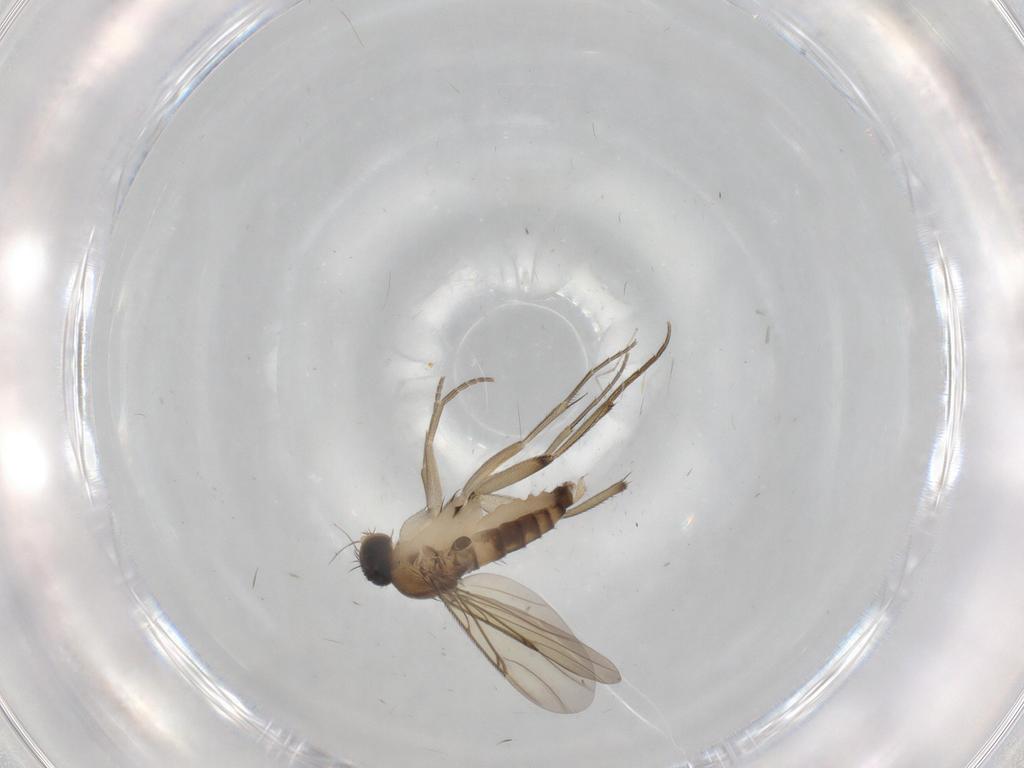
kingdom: Animalia
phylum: Arthropoda
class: Insecta
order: Diptera
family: Phoridae
